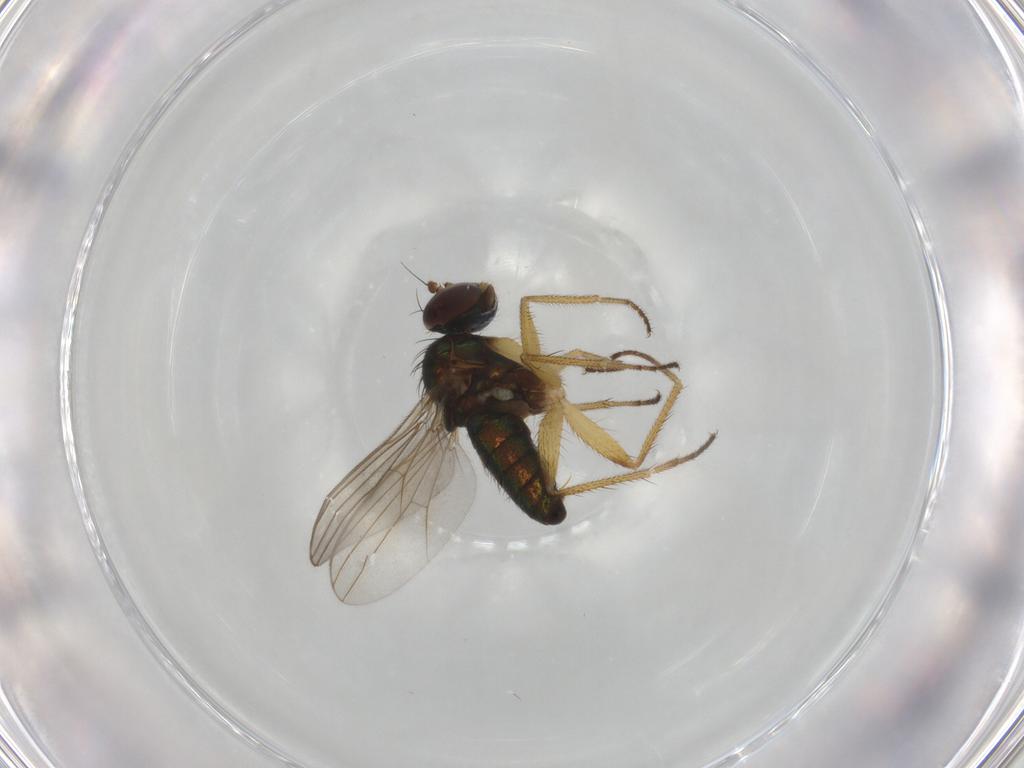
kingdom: Animalia
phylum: Arthropoda
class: Insecta
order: Diptera
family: Dolichopodidae
